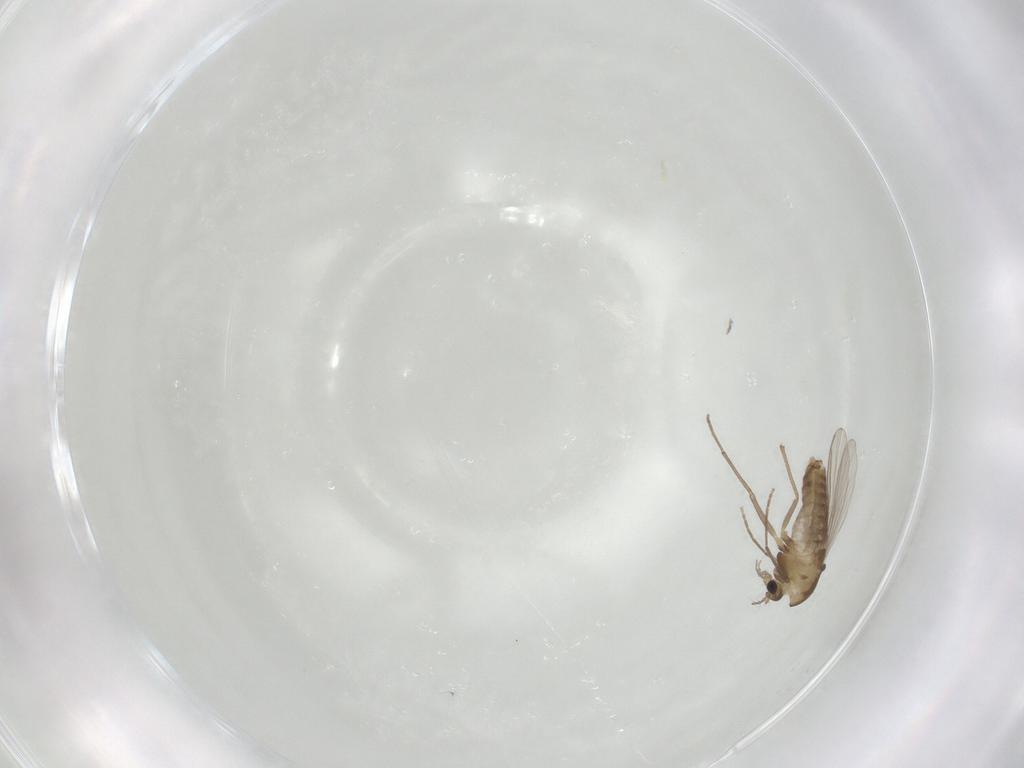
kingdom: Animalia
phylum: Arthropoda
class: Insecta
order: Diptera
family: Chironomidae
